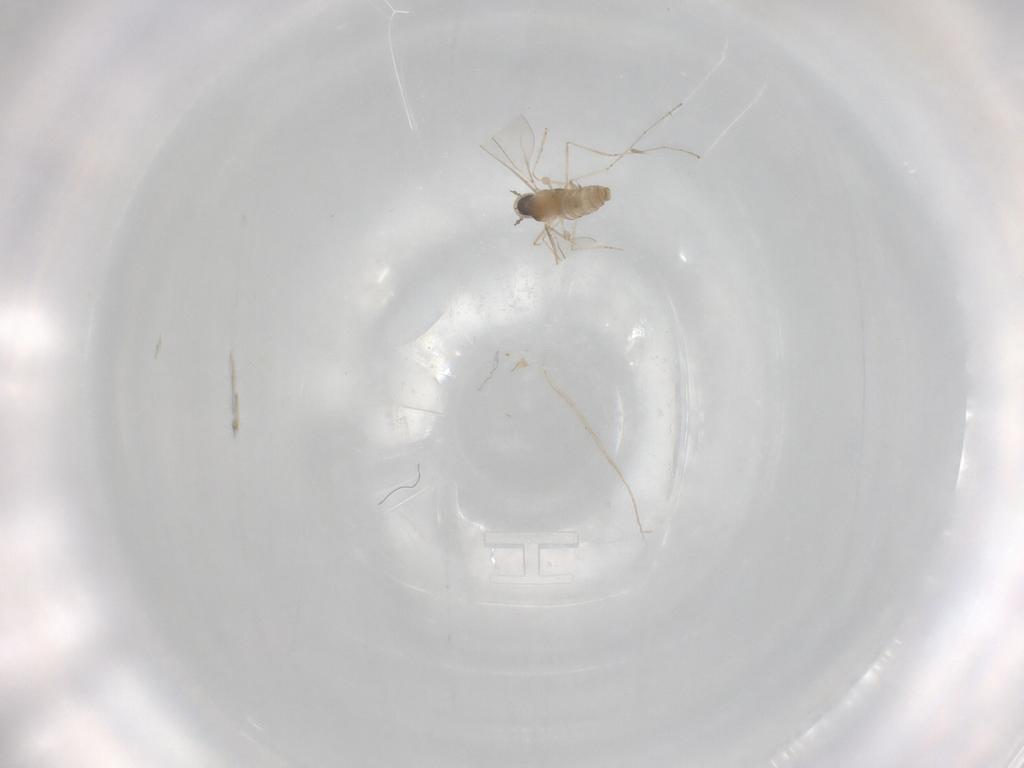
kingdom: Animalia
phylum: Arthropoda
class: Insecta
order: Diptera
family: Cecidomyiidae
